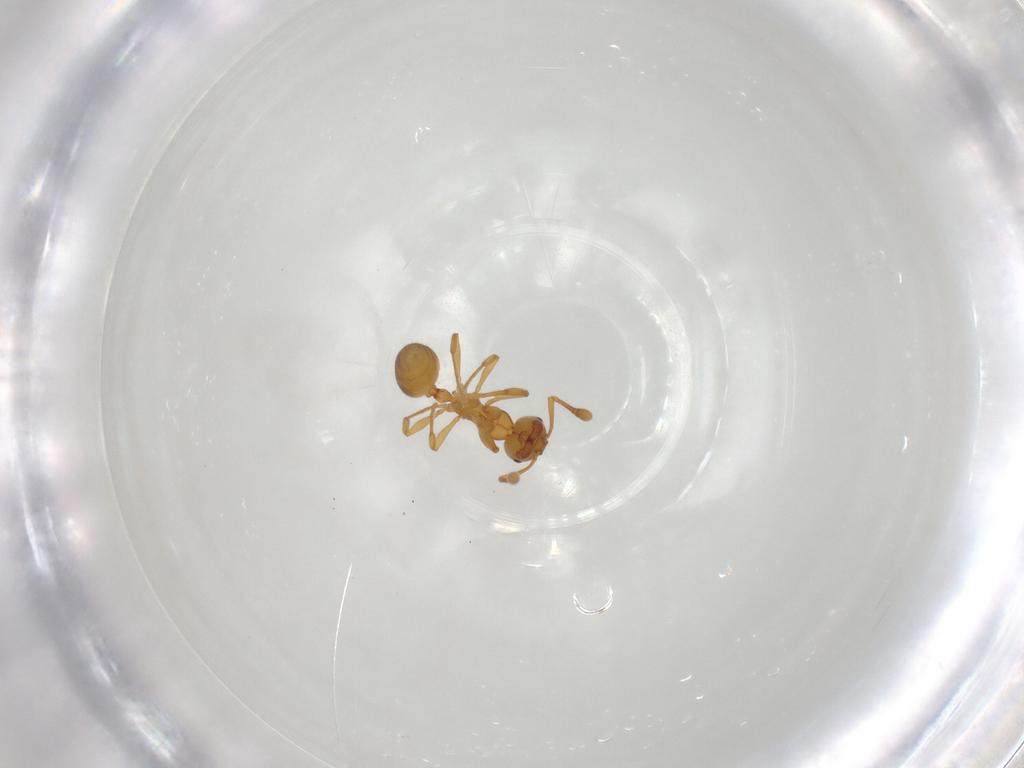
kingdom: Animalia
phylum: Arthropoda
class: Insecta
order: Hymenoptera
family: Formicidae
